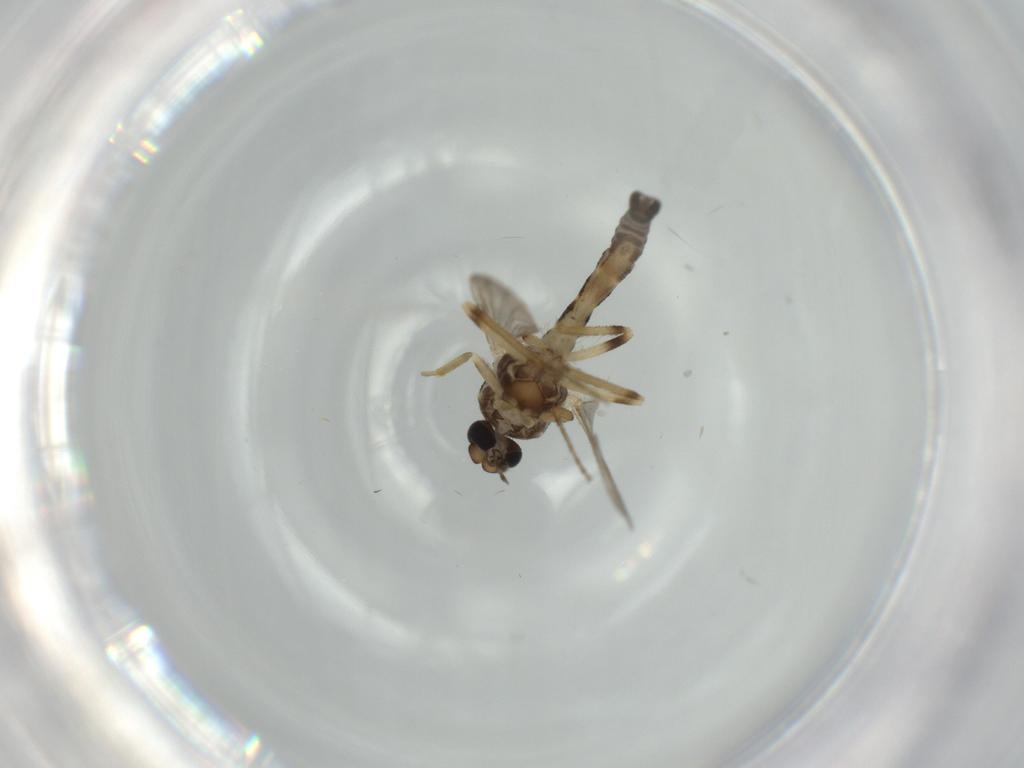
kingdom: Animalia
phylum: Arthropoda
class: Insecta
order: Diptera
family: Ceratopogonidae
